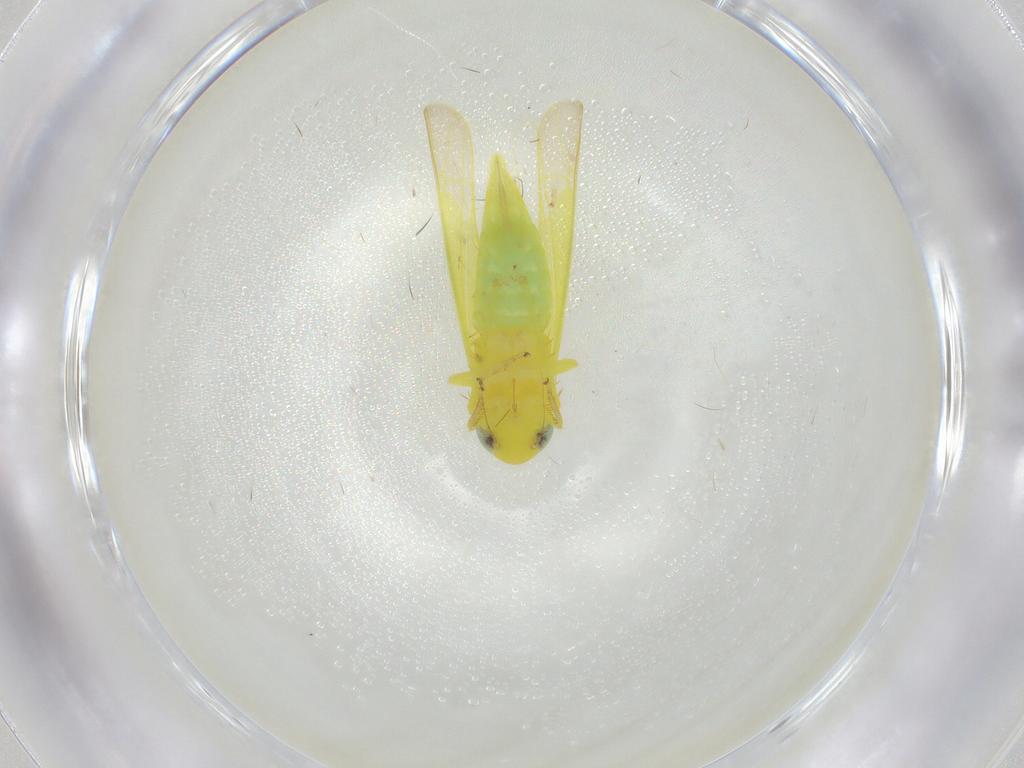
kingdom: Animalia
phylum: Arthropoda
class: Insecta
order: Hemiptera
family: Cicadellidae
